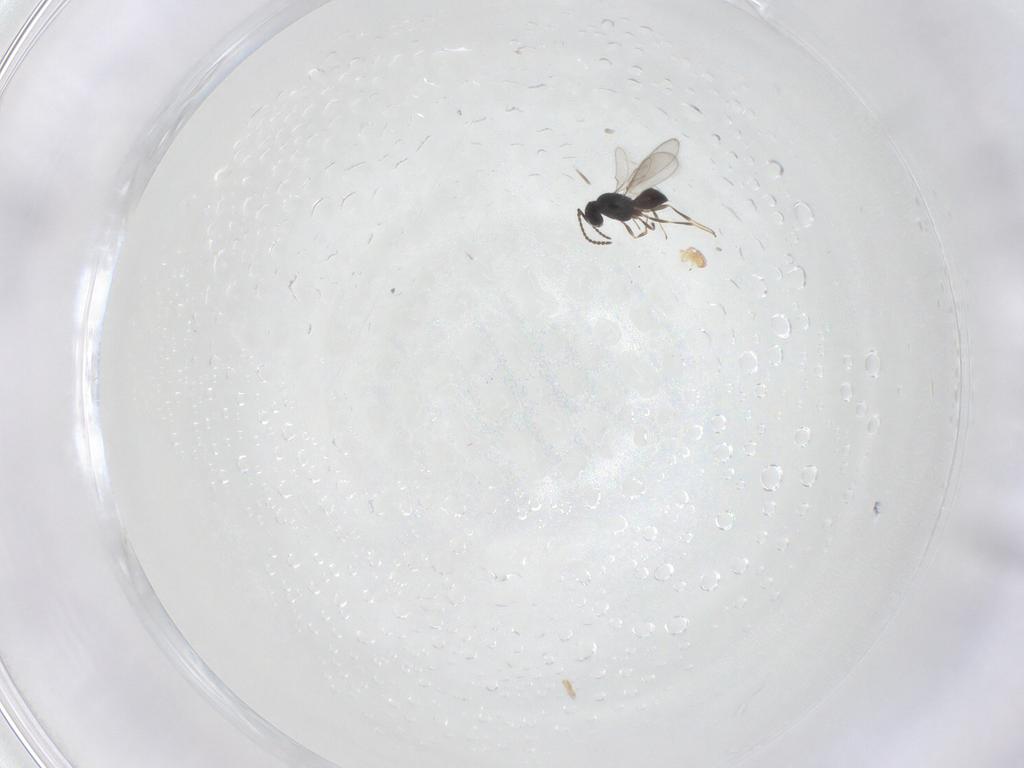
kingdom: Animalia
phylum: Arthropoda
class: Insecta
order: Hymenoptera
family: Scelionidae
